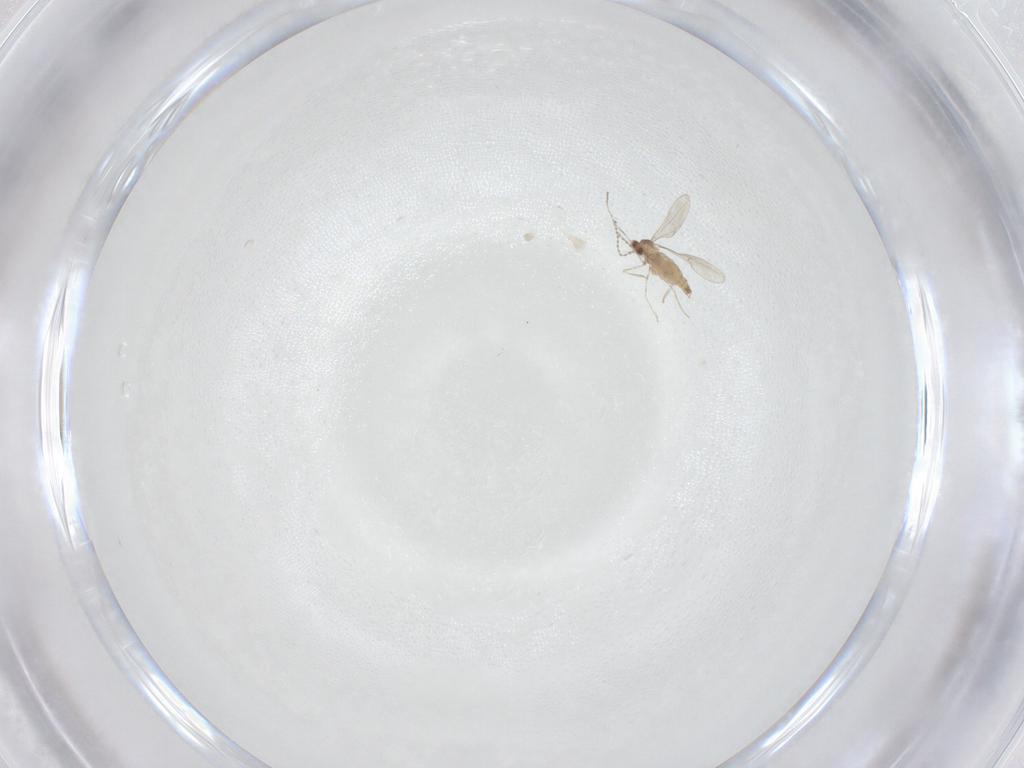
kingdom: Animalia
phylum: Arthropoda
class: Insecta
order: Diptera
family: Cecidomyiidae
